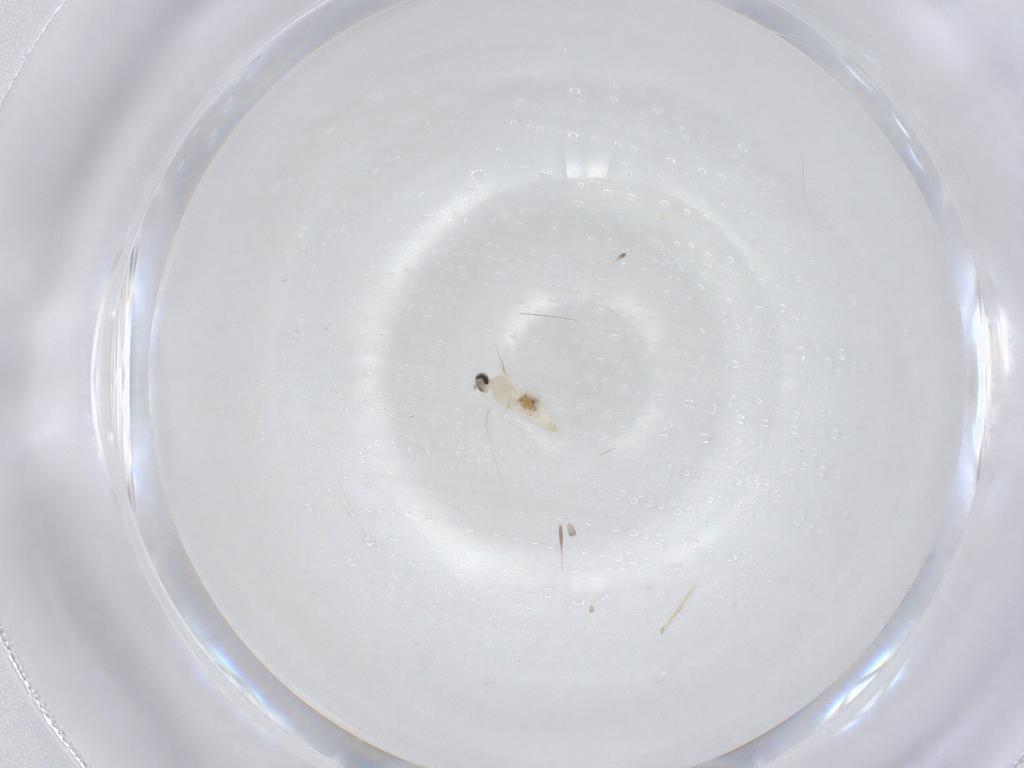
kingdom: Animalia
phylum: Arthropoda
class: Insecta
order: Diptera
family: Cecidomyiidae
